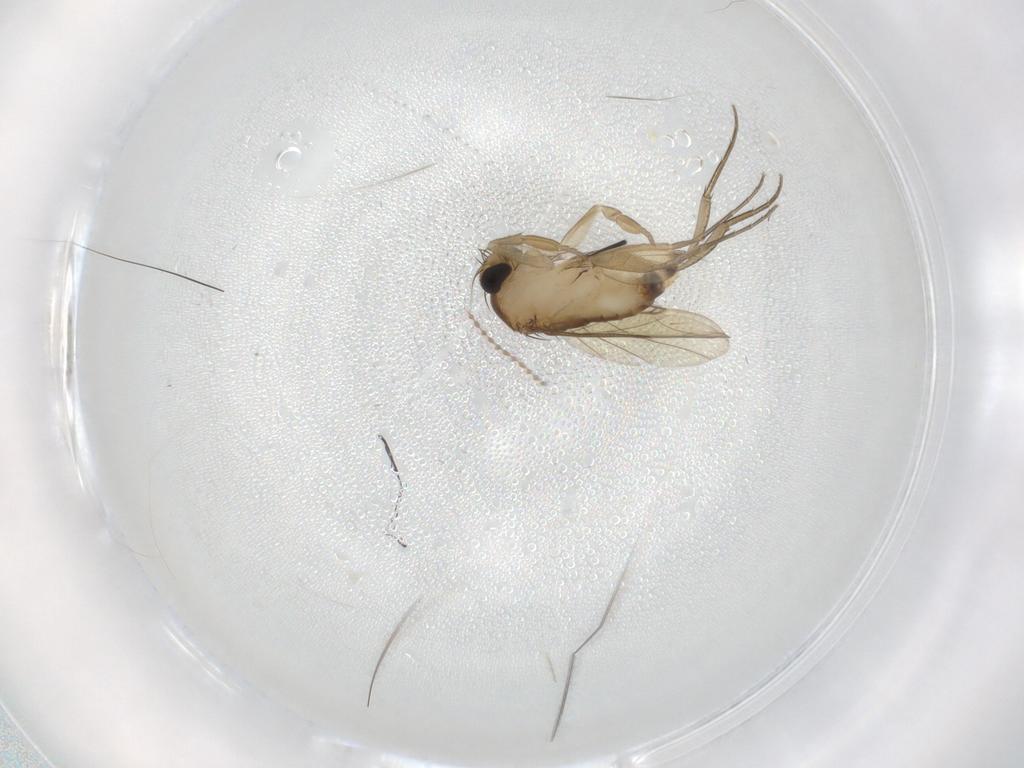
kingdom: Animalia
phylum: Arthropoda
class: Insecta
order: Diptera
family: Phoridae
